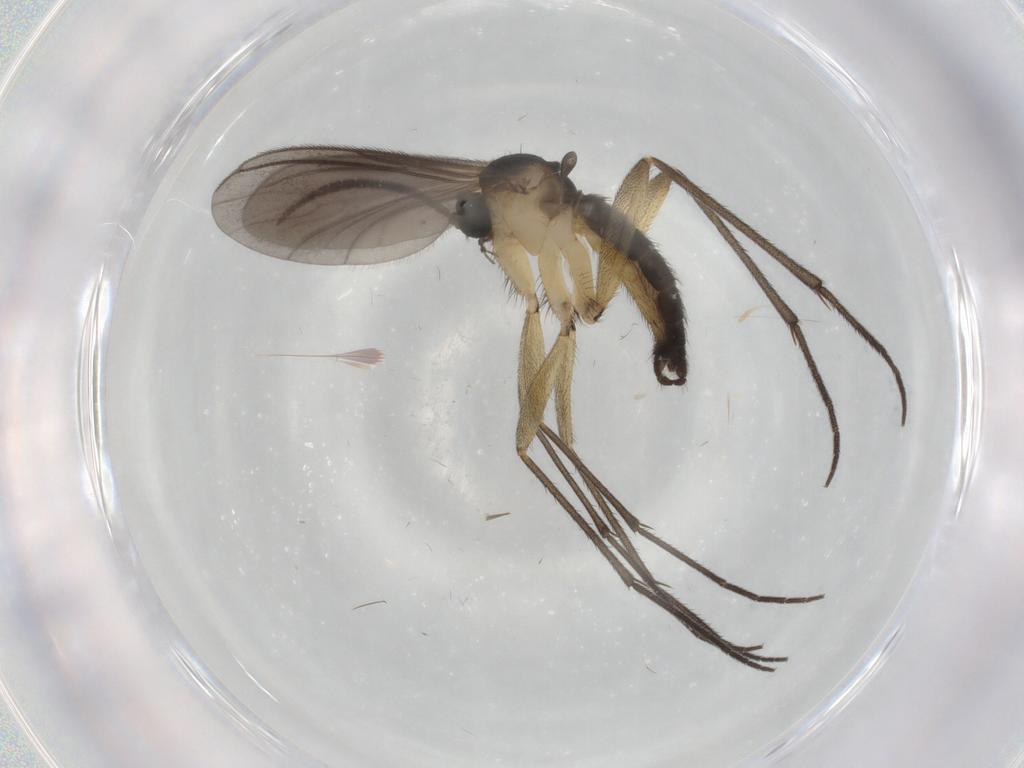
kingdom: Animalia
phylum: Arthropoda
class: Insecta
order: Diptera
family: Sciaridae
